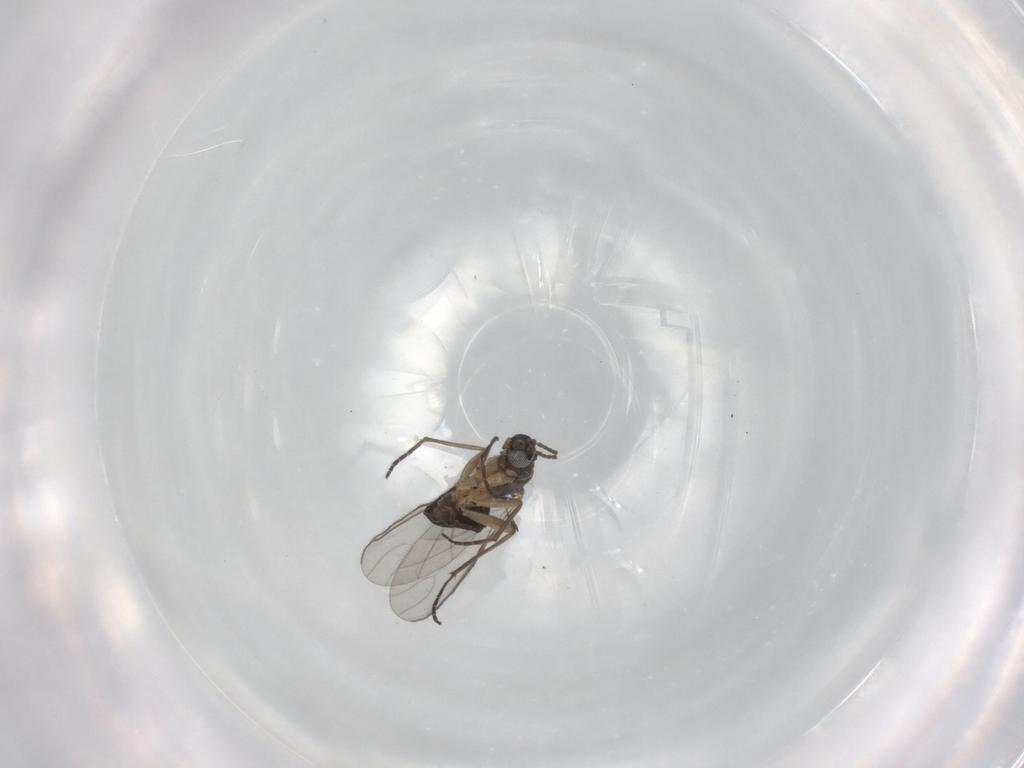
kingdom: Animalia
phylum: Arthropoda
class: Insecta
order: Diptera
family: Sciaridae
